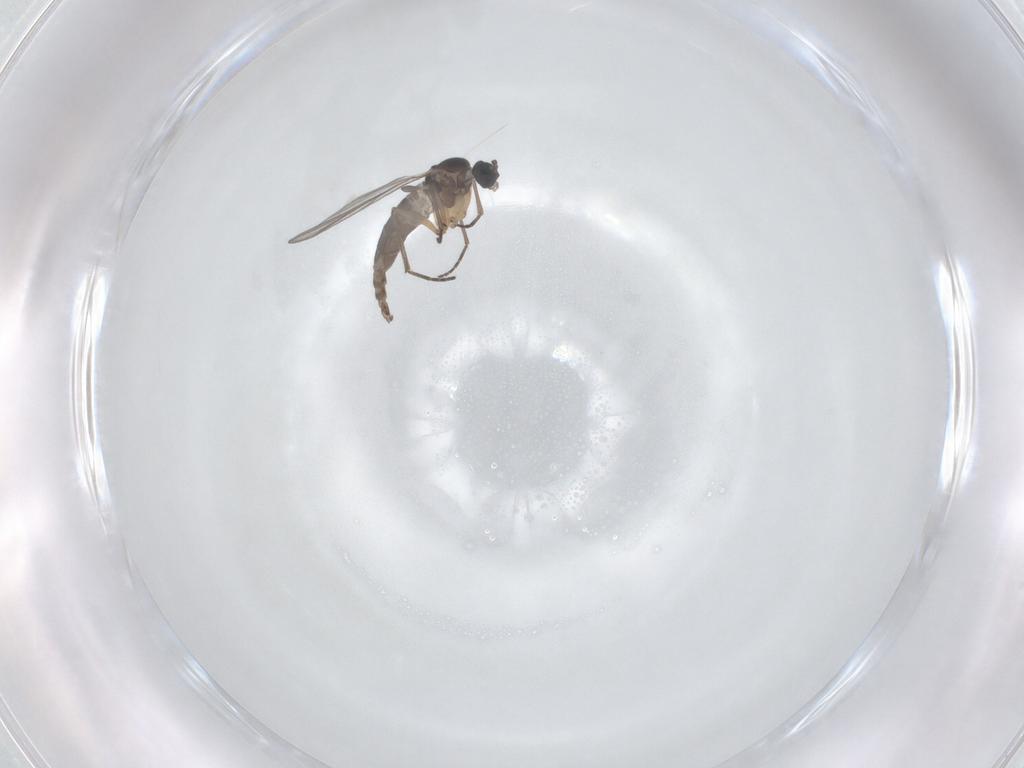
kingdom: Animalia
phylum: Arthropoda
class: Insecta
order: Diptera
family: Sciaridae
